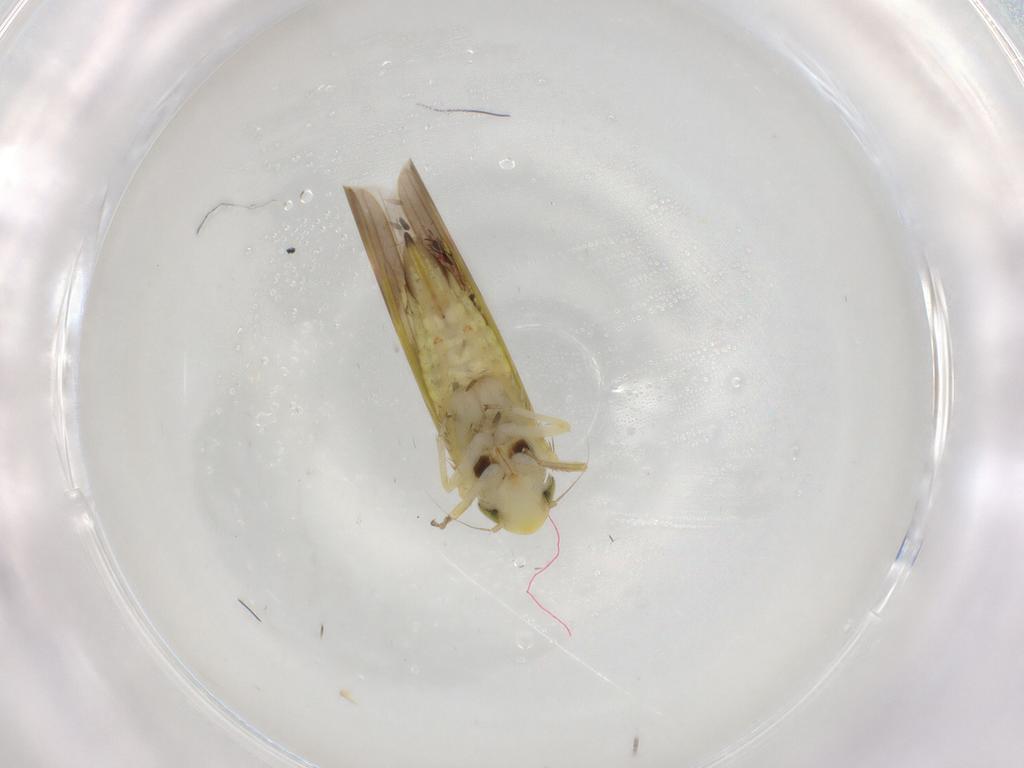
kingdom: Animalia
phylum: Arthropoda
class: Insecta
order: Hemiptera
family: Cicadellidae
